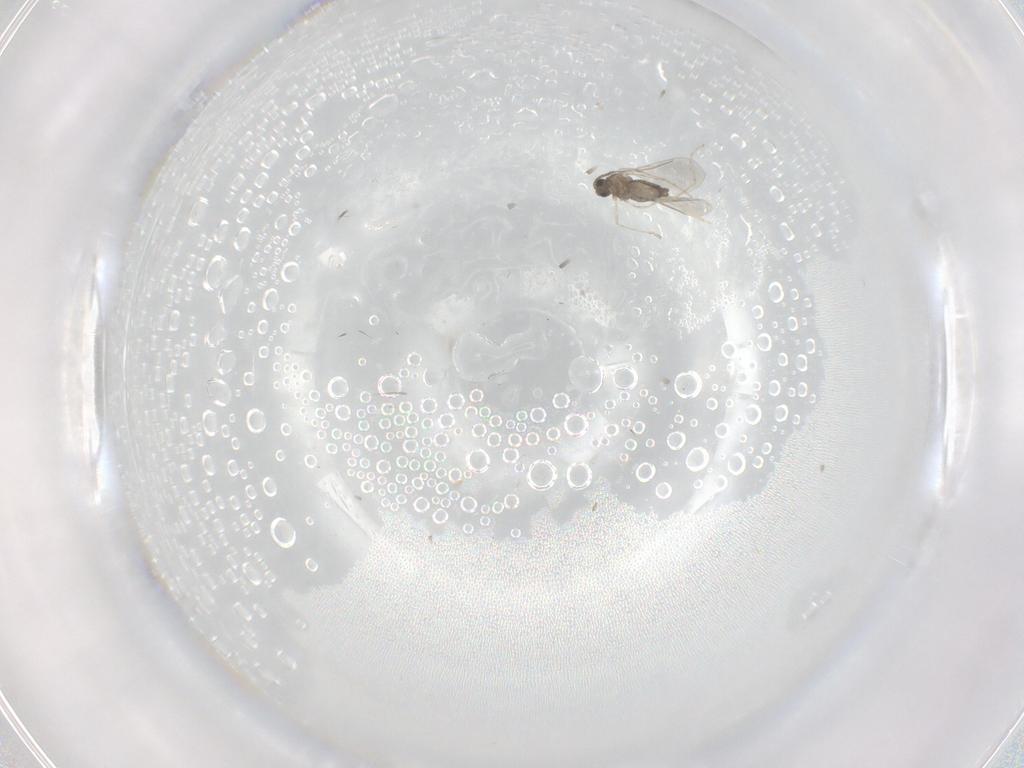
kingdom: Animalia
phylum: Arthropoda
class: Insecta
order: Diptera
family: Cecidomyiidae
